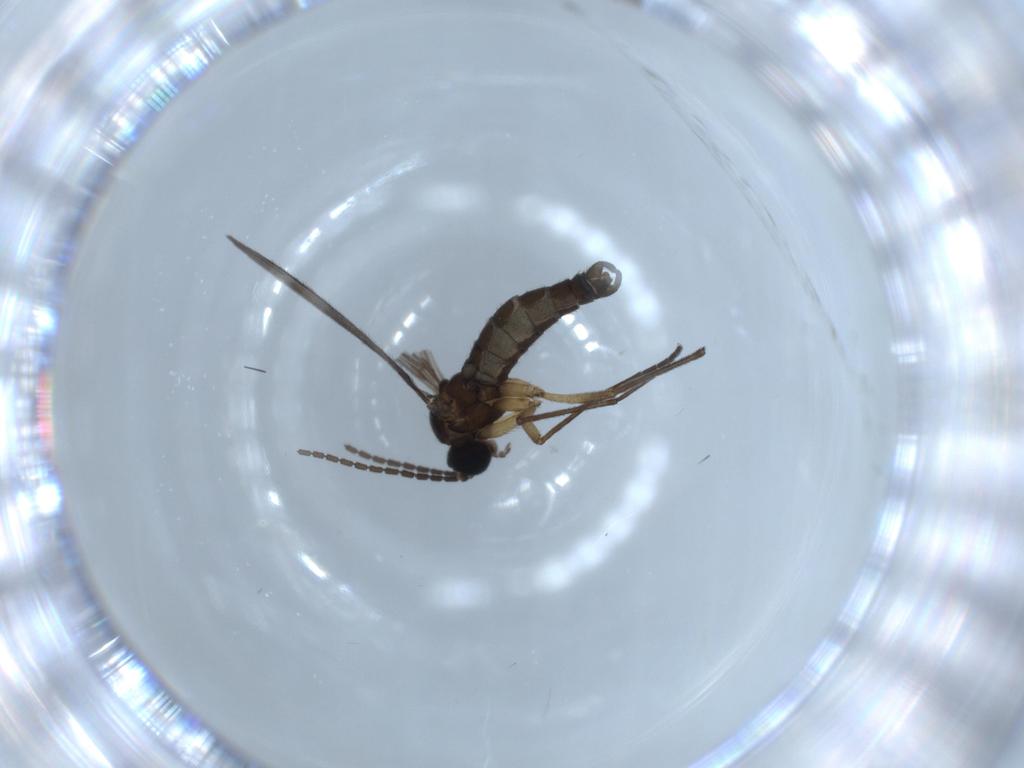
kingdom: Animalia
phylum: Arthropoda
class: Insecta
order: Diptera
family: Sciaridae
